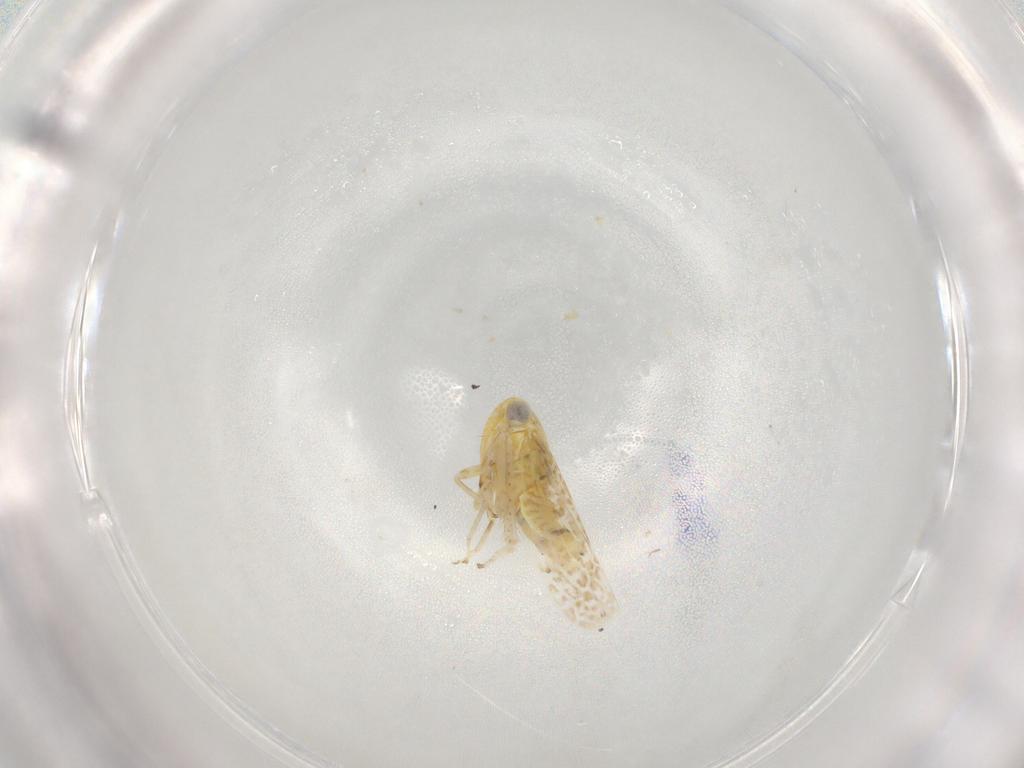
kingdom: Animalia
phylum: Arthropoda
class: Insecta
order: Hemiptera
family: Cicadellidae
